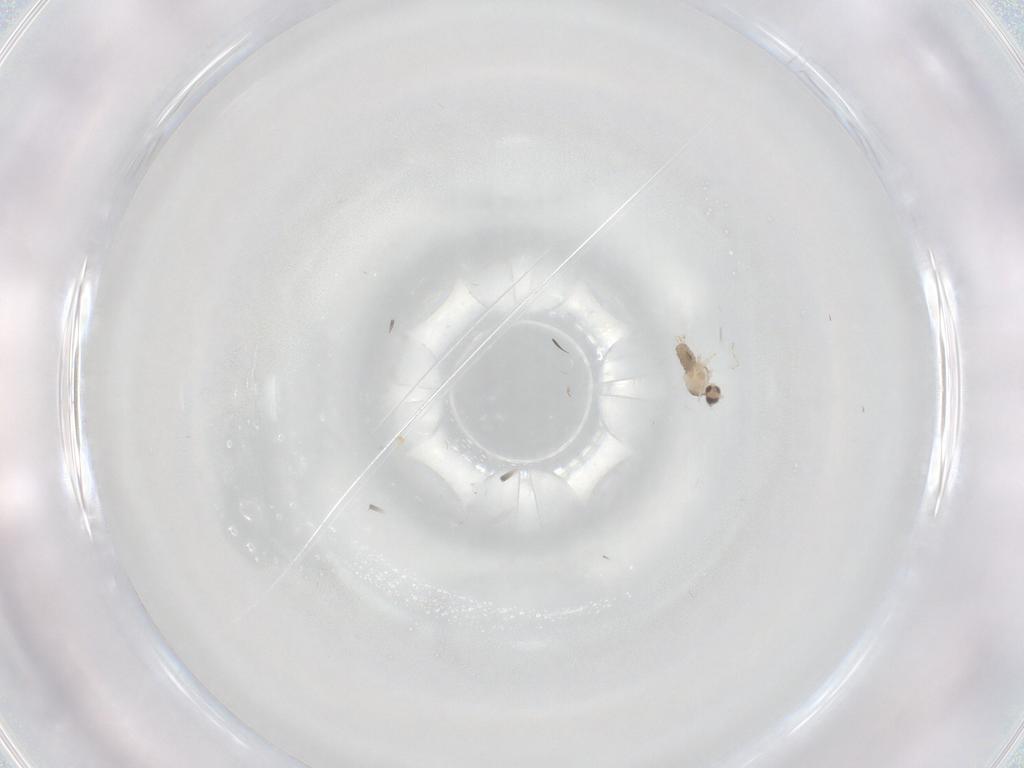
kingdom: Animalia
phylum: Arthropoda
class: Insecta
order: Diptera
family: Cecidomyiidae
